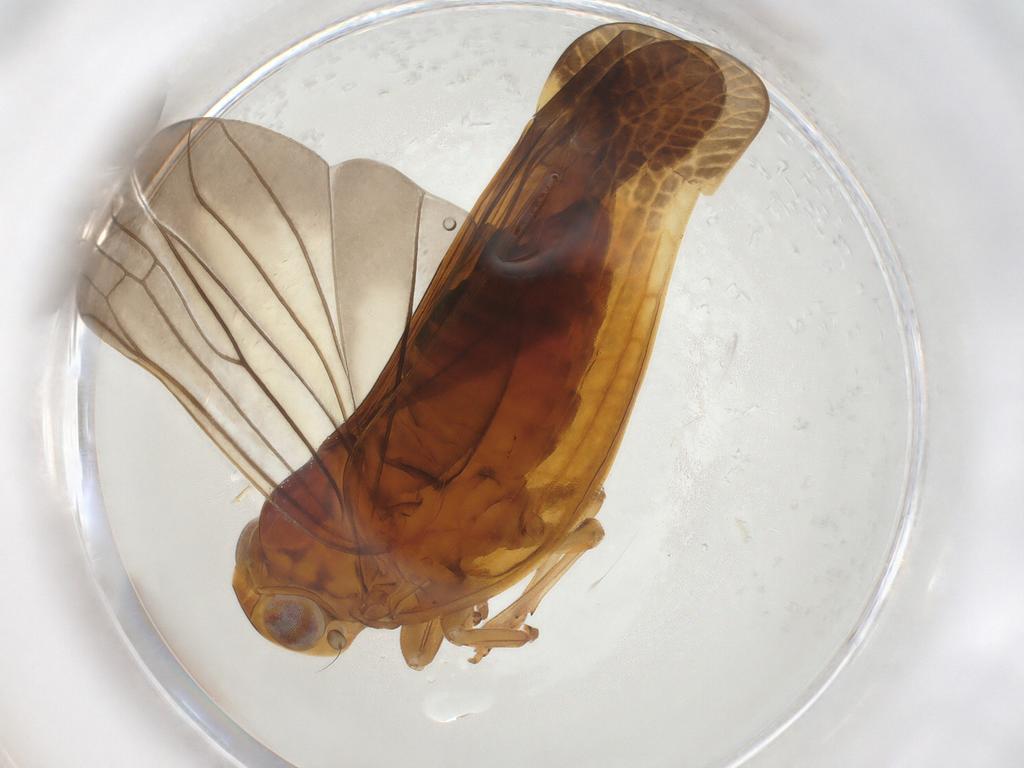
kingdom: Animalia
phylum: Arthropoda
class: Insecta
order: Hemiptera
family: Nogodinidae
